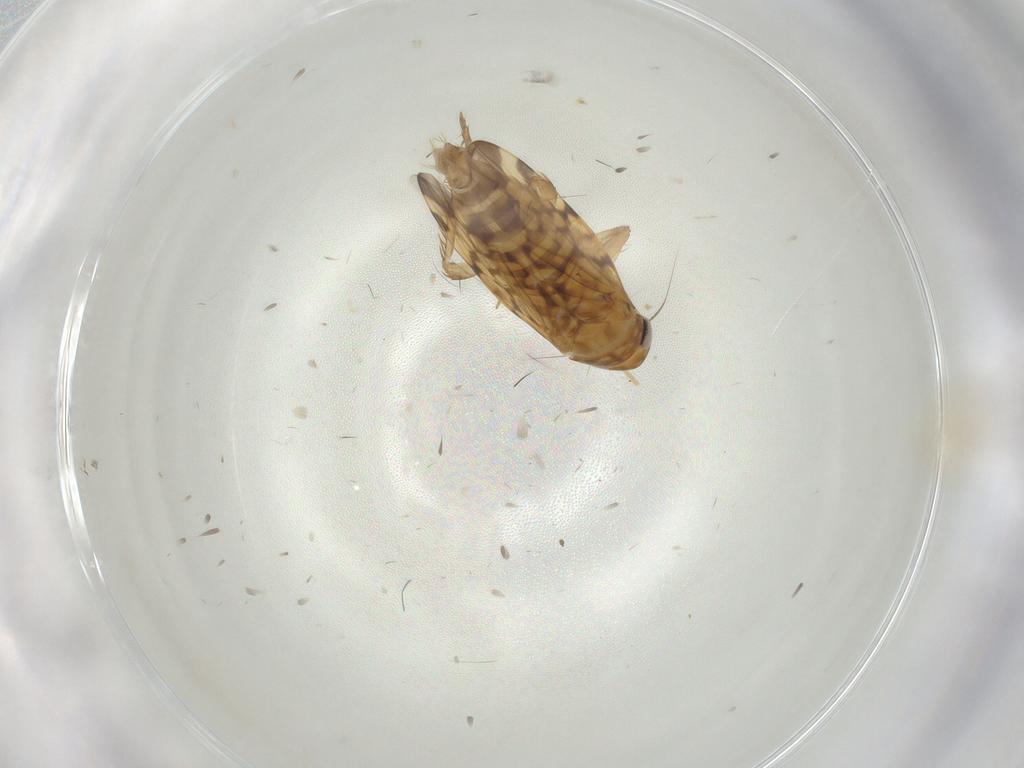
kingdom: Animalia
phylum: Arthropoda
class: Insecta
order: Hemiptera
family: Cicadellidae
